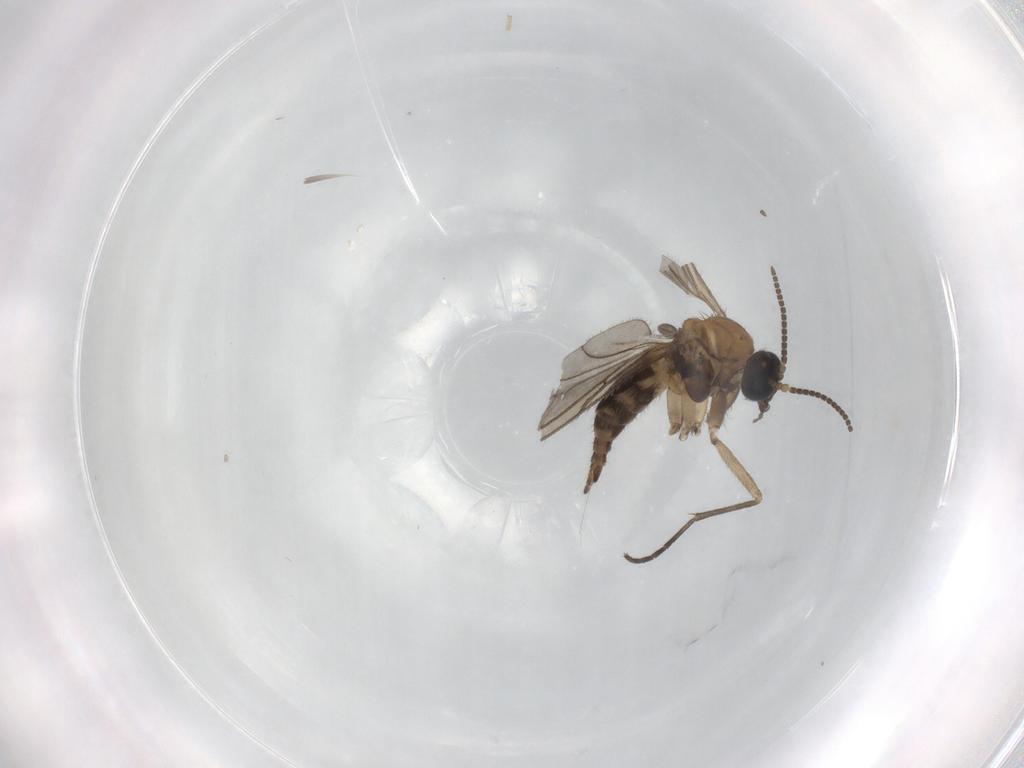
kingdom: Animalia
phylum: Arthropoda
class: Insecta
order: Diptera
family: Sciaridae
